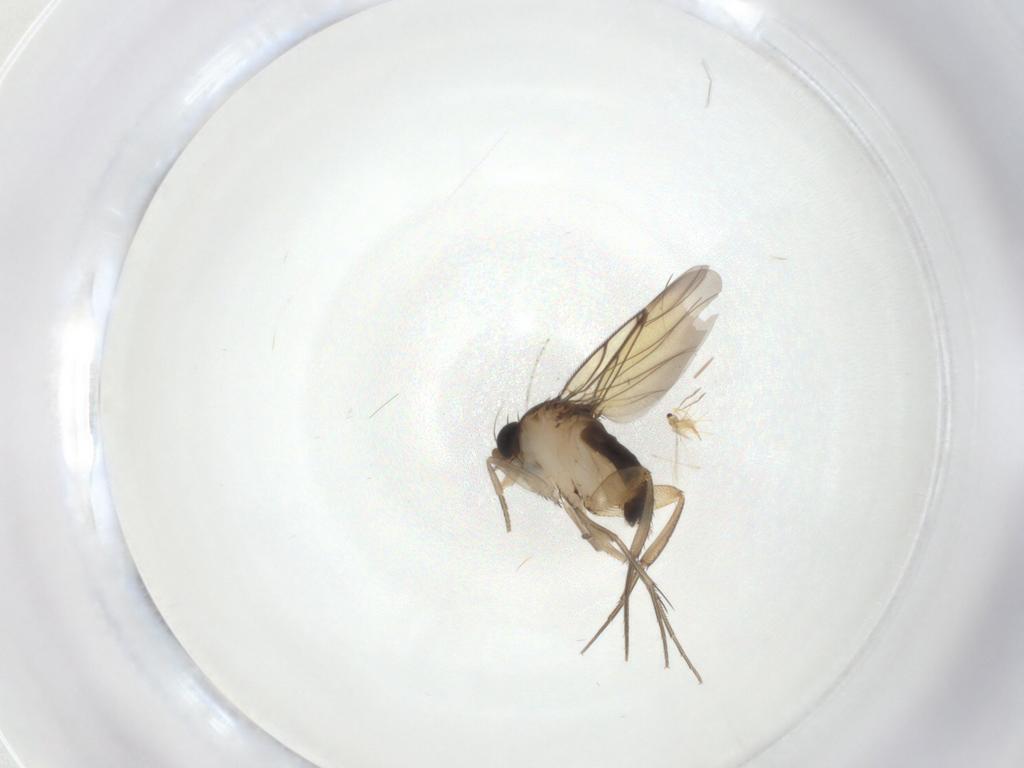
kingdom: Animalia
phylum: Arthropoda
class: Insecta
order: Diptera
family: Cecidomyiidae
